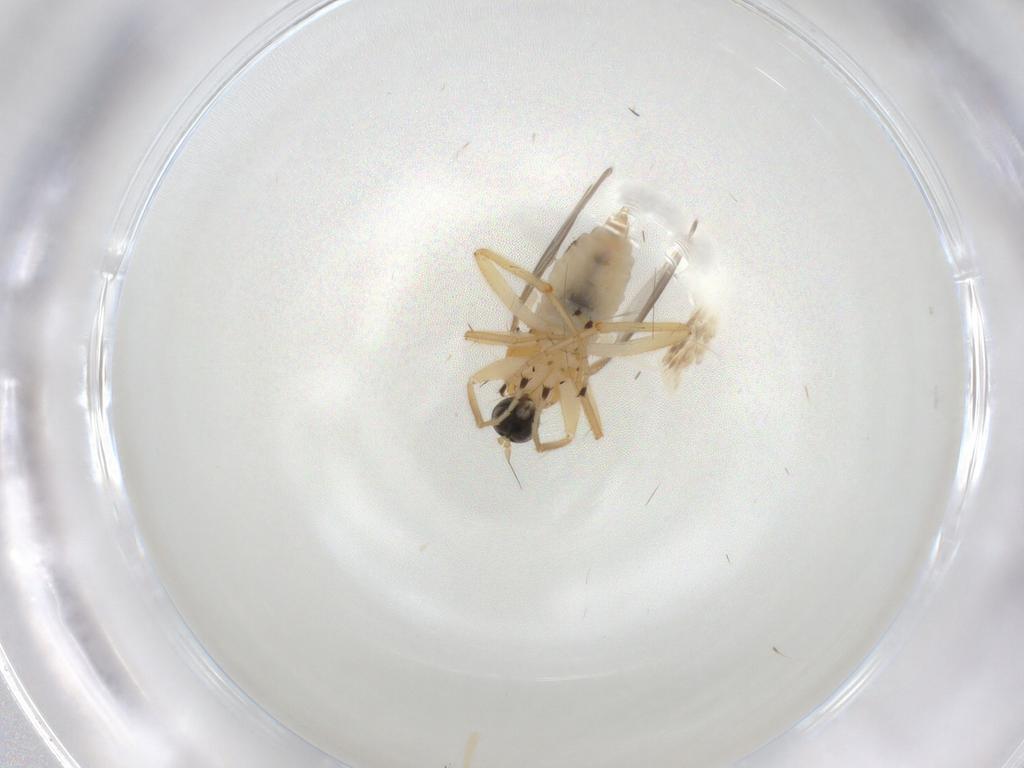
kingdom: Animalia
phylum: Arthropoda
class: Insecta
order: Diptera
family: Hybotidae
